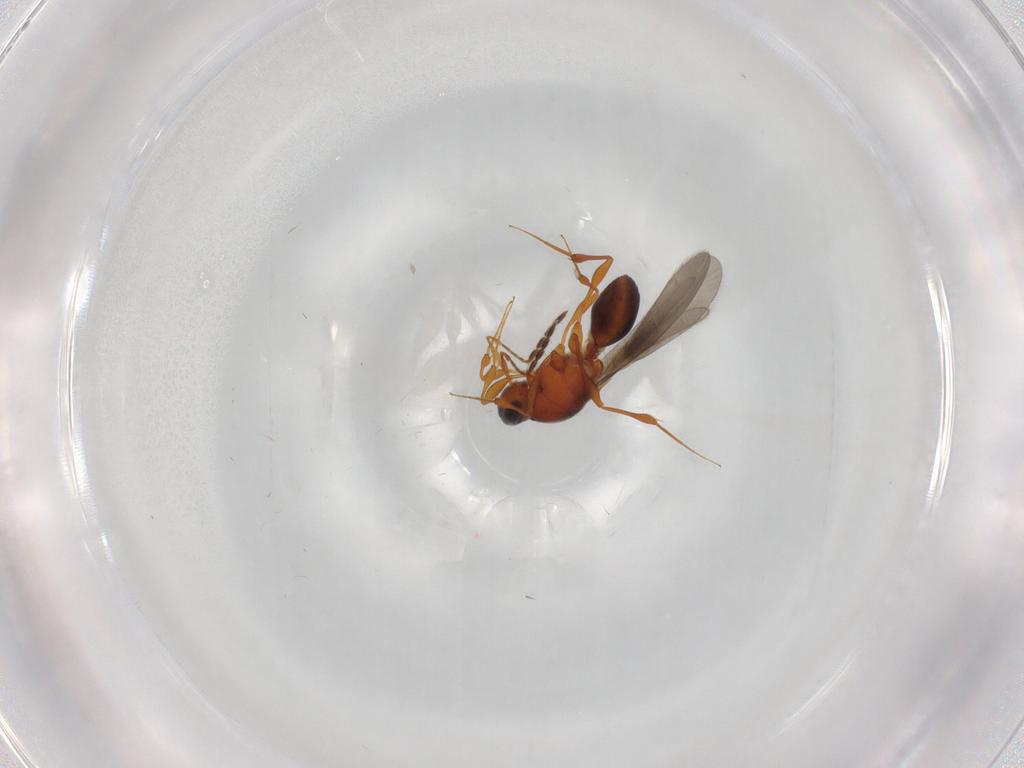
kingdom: Animalia
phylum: Arthropoda
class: Insecta
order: Hymenoptera
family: Platygastridae
